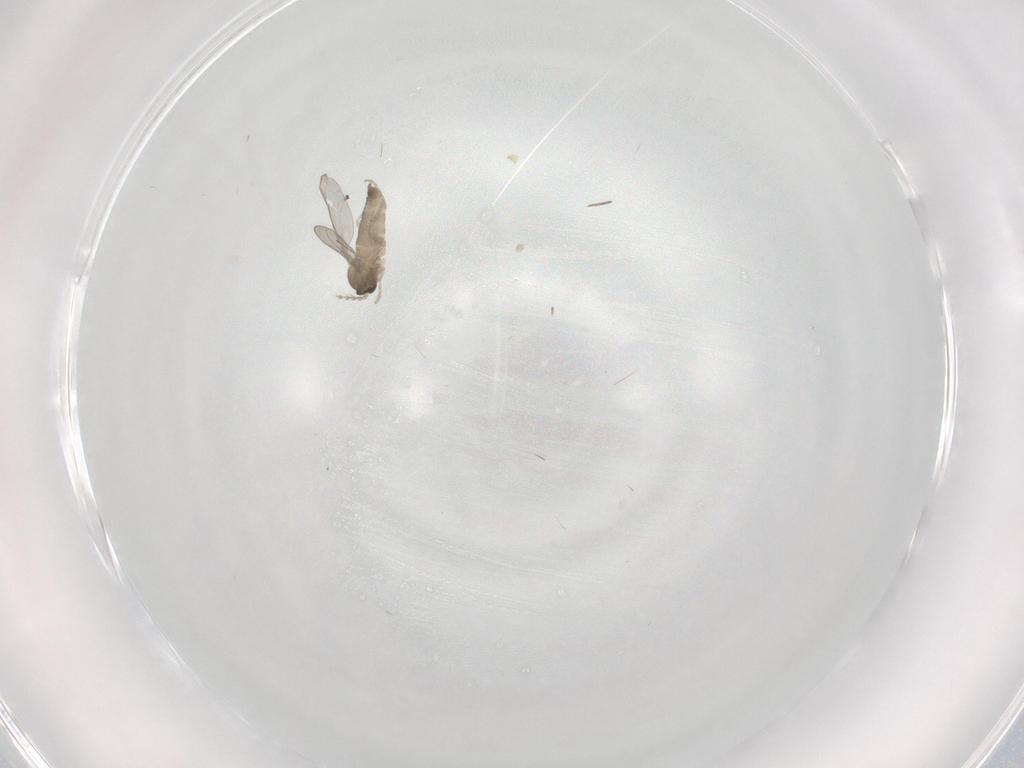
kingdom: Animalia
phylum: Arthropoda
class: Insecta
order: Diptera
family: Cecidomyiidae
